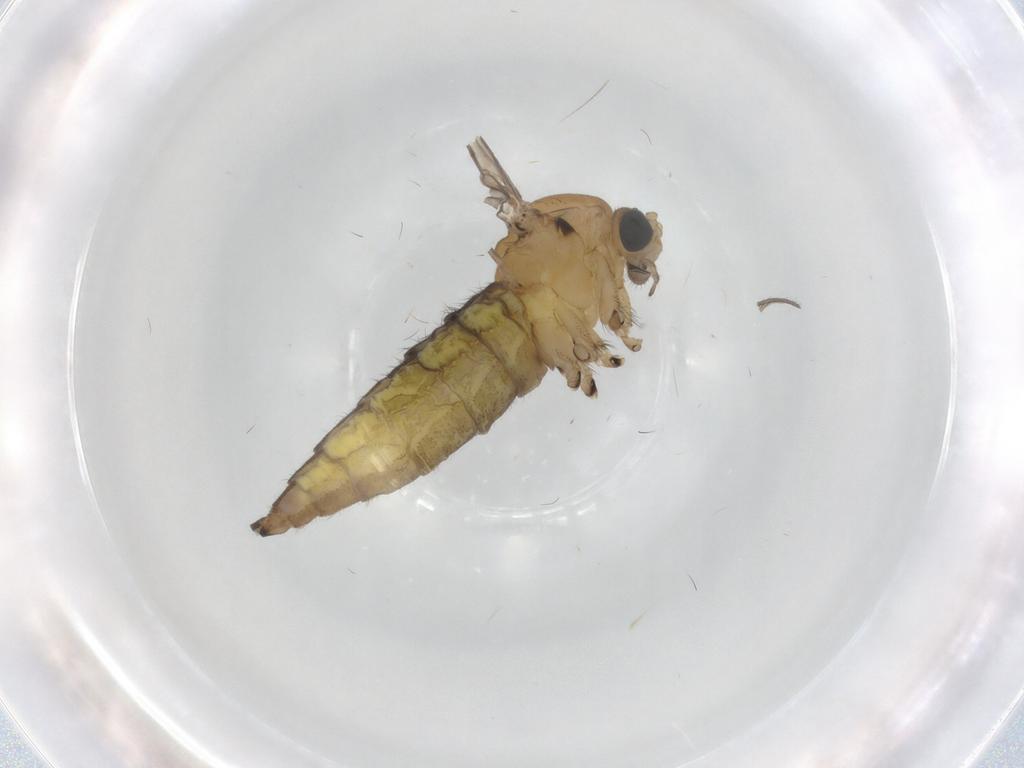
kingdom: Animalia
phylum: Arthropoda
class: Insecta
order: Diptera
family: Sciaridae
